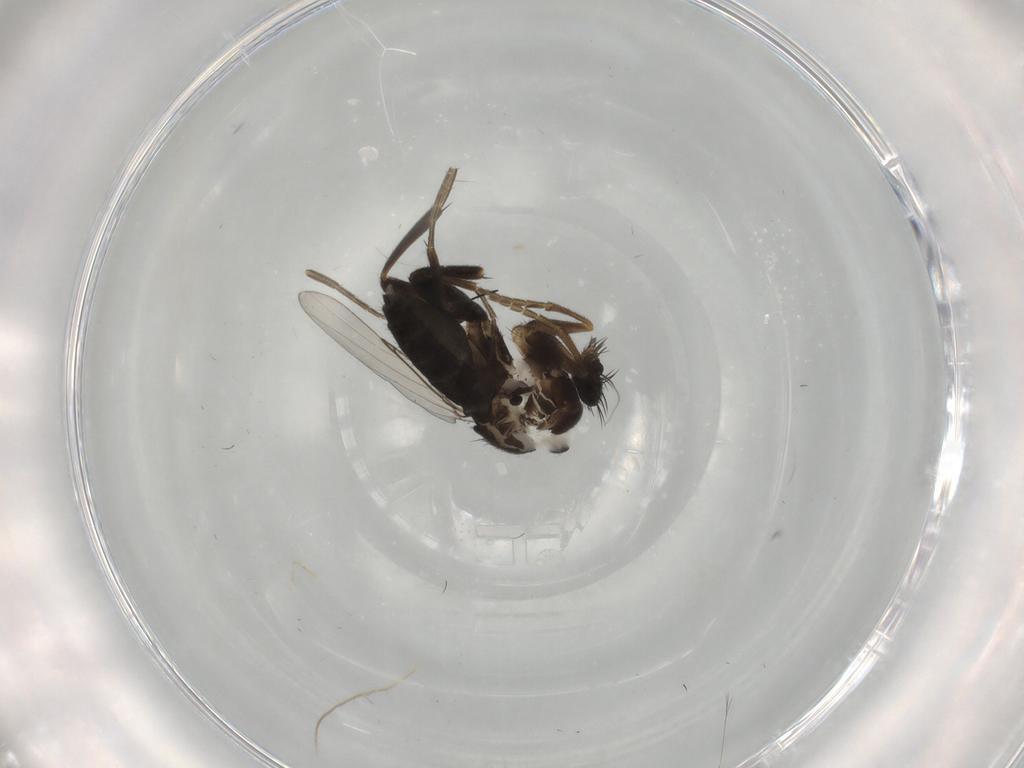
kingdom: Animalia
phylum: Arthropoda
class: Insecta
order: Diptera
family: Phoridae
